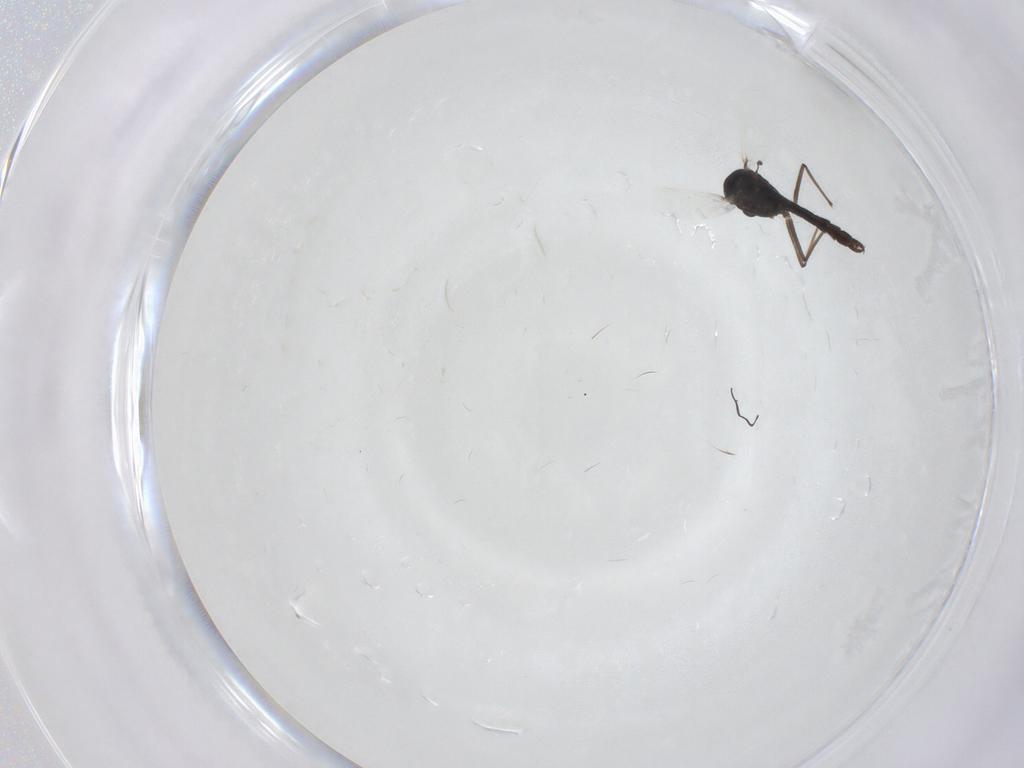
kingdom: Animalia
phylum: Arthropoda
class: Insecta
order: Diptera
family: Chironomidae
